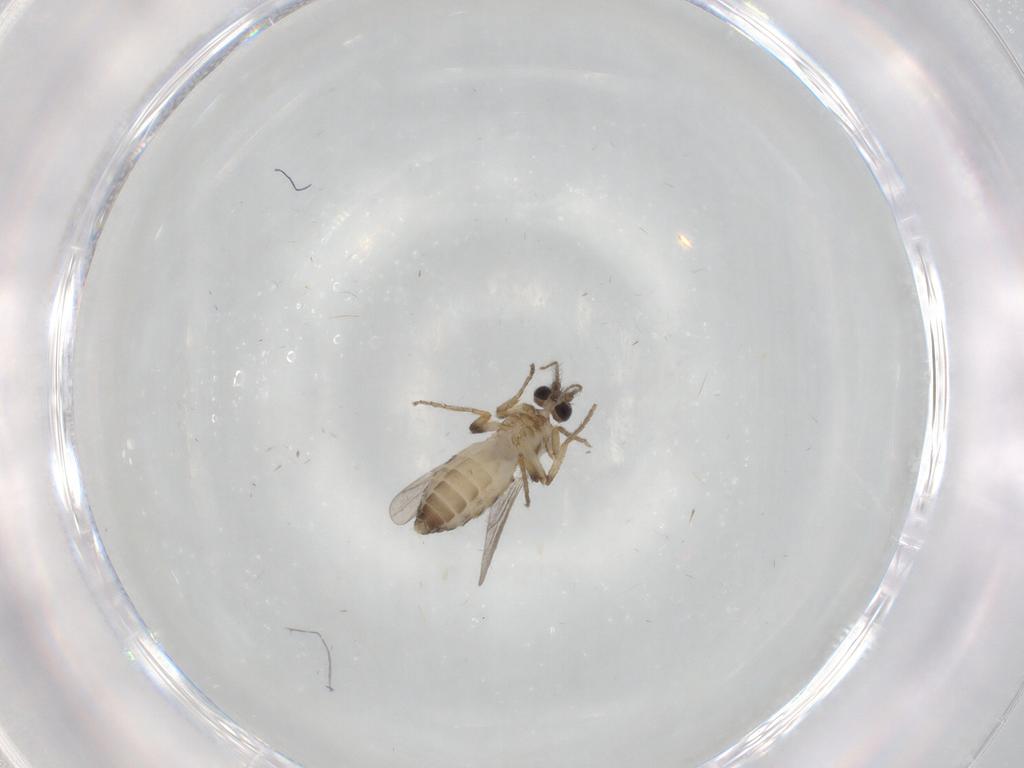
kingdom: Animalia
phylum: Arthropoda
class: Insecta
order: Diptera
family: Ceratopogonidae
